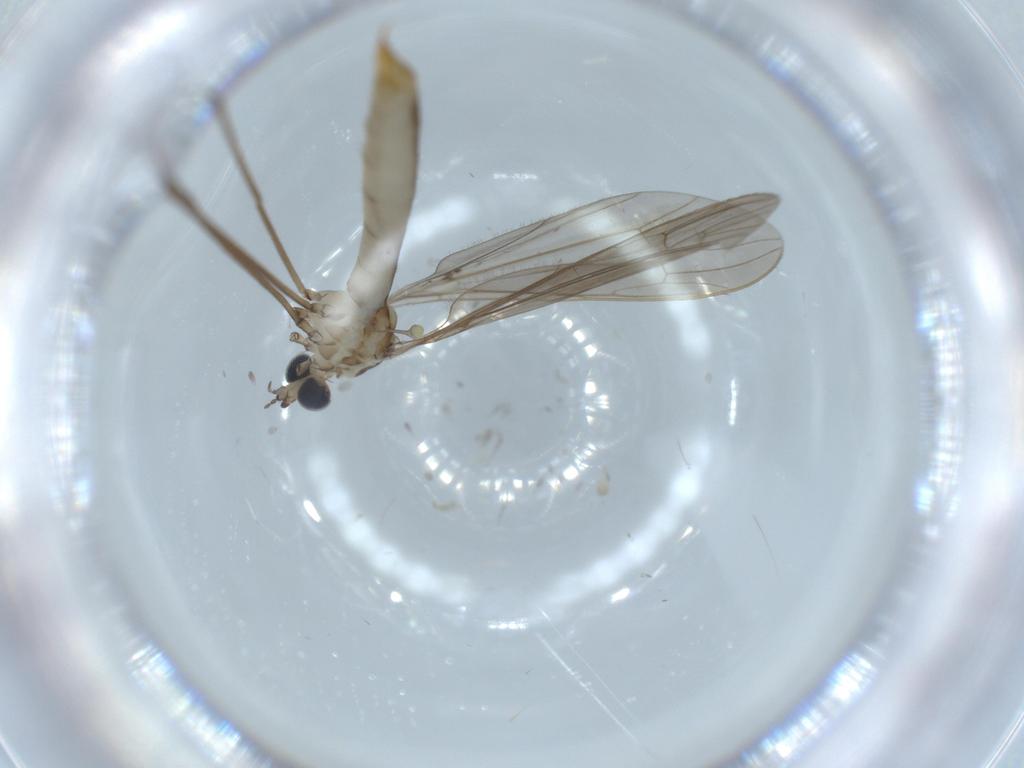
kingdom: Animalia
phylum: Arthropoda
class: Insecta
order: Diptera
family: Limoniidae
